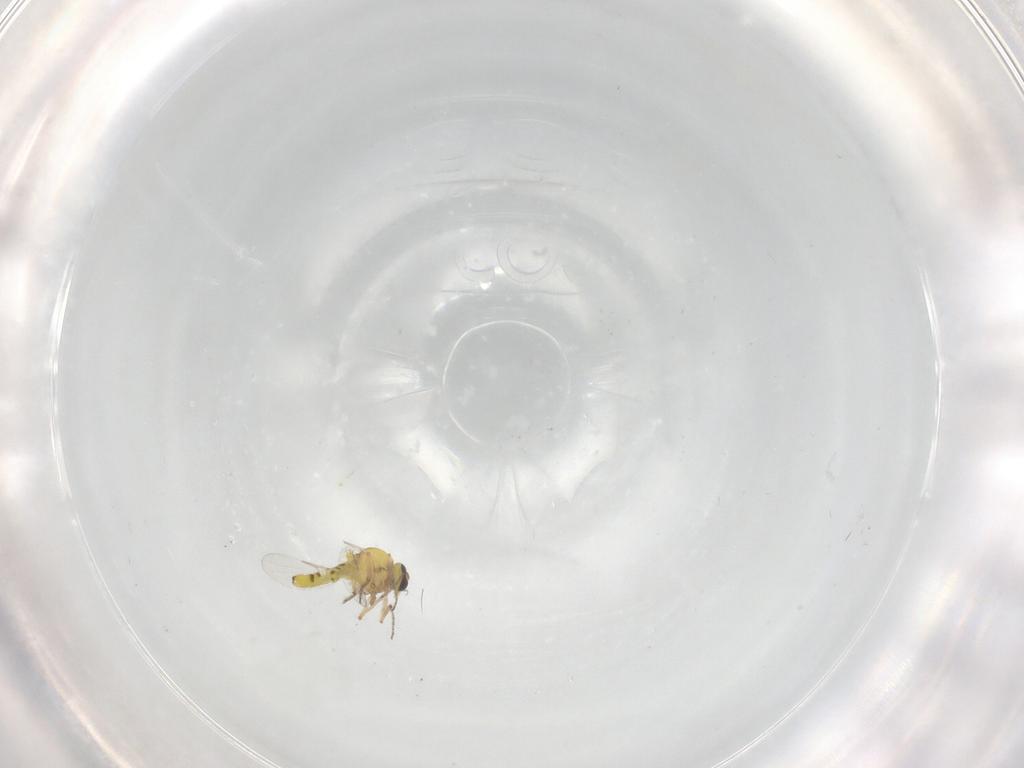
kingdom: Animalia
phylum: Arthropoda
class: Insecta
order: Diptera
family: Ceratopogonidae
